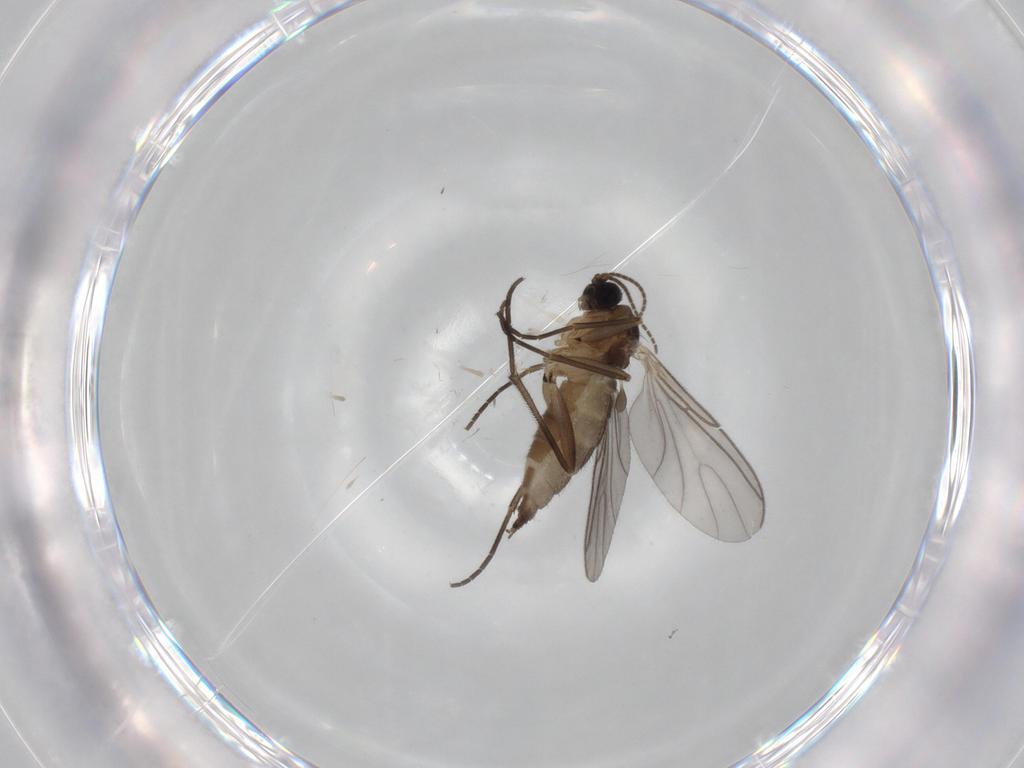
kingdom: Animalia
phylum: Arthropoda
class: Insecta
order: Diptera
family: Sciaridae
